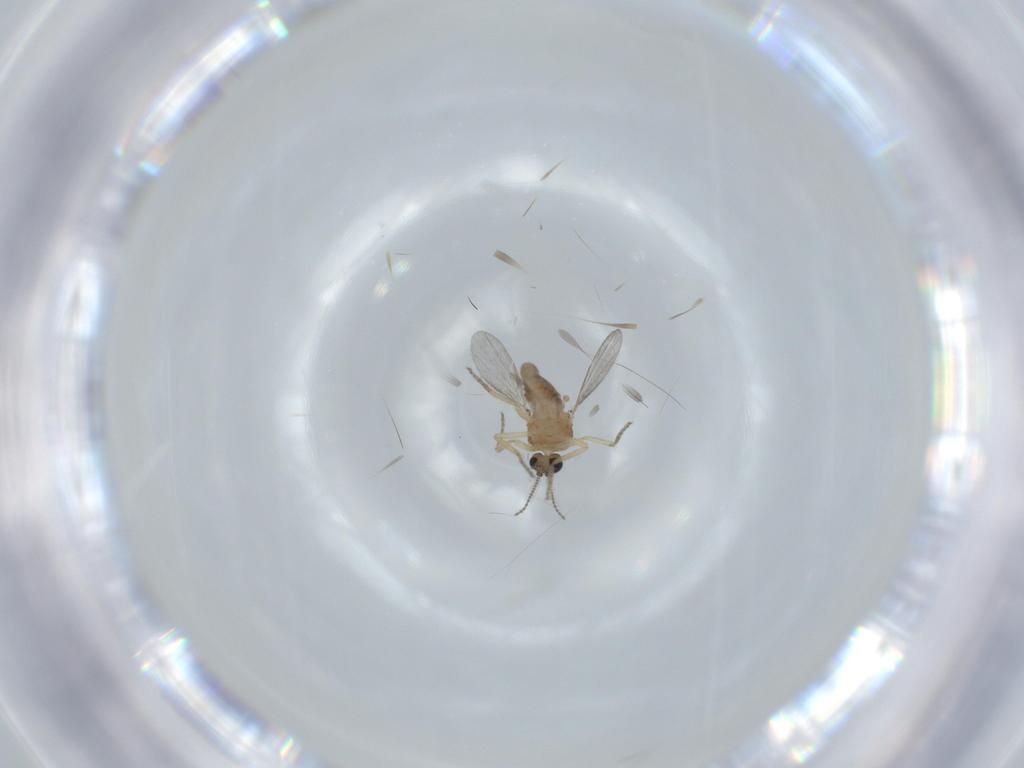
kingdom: Animalia
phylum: Arthropoda
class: Insecta
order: Diptera
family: Ceratopogonidae
